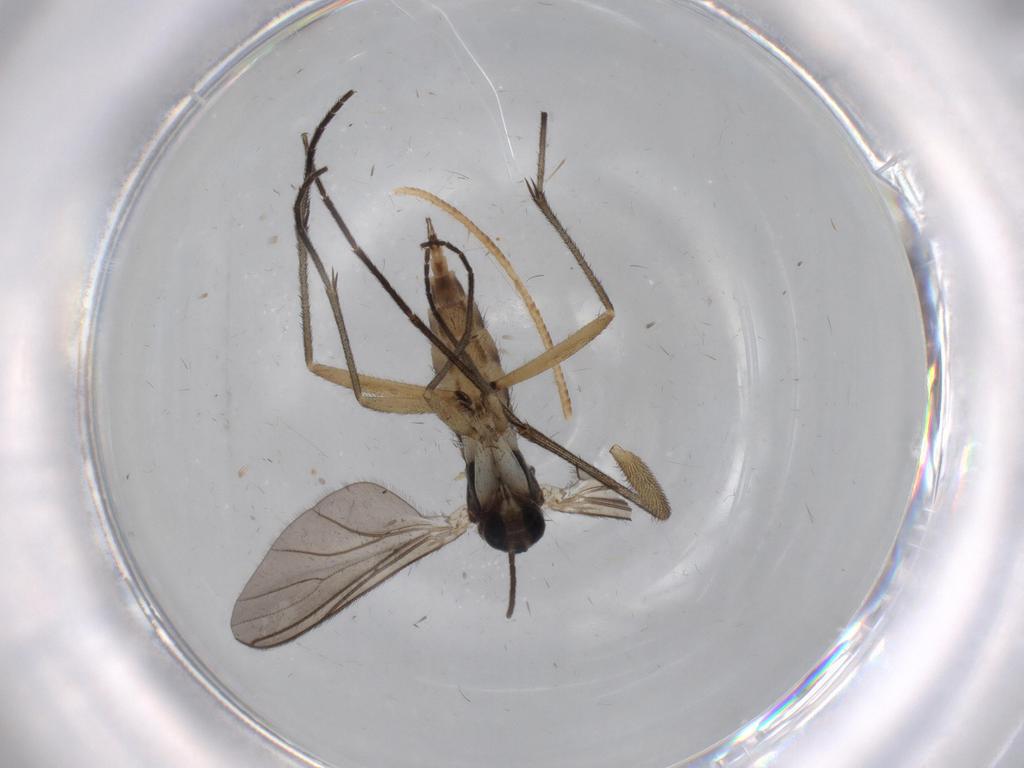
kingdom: Animalia
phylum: Arthropoda
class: Insecta
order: Diptera
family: Sciaridae
